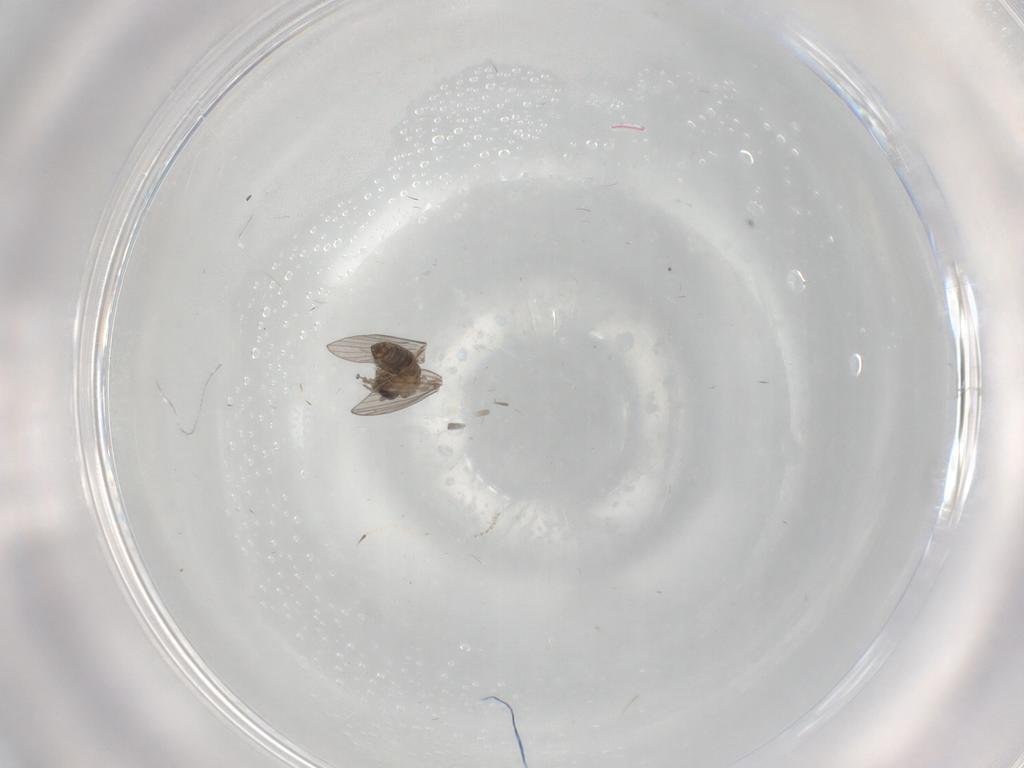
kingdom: Animalia
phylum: Arthropoda
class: Insecta
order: Diptera
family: Psychodidae
